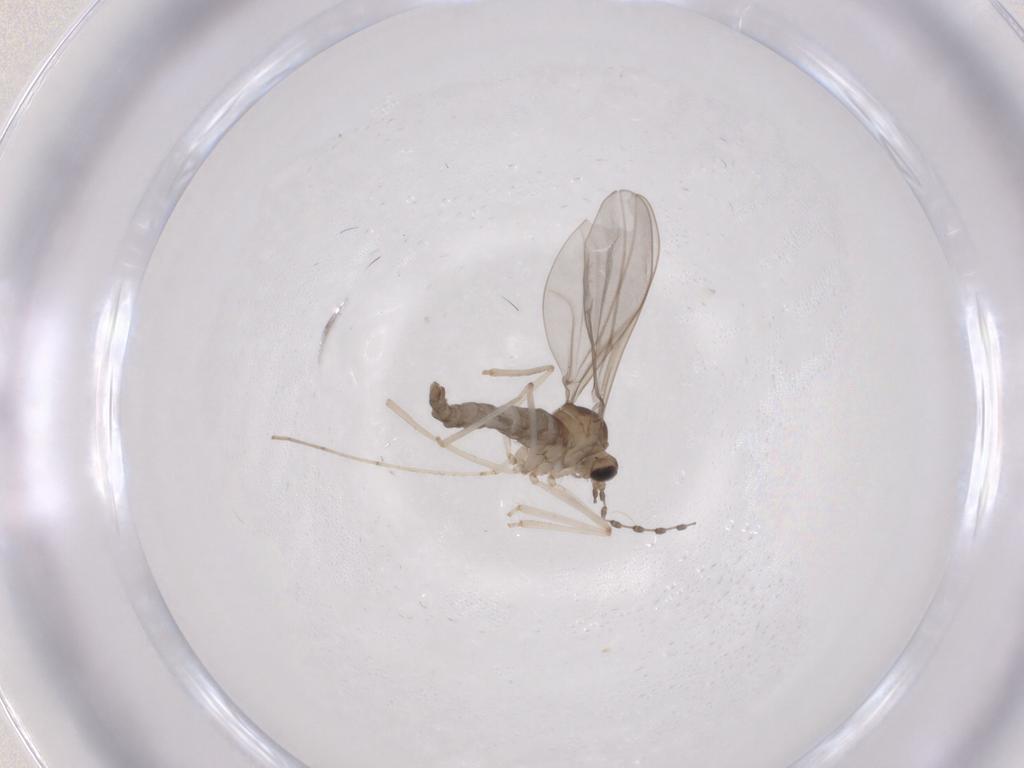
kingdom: Animalia
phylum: Arthropoda
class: Insecta
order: Diptera
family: Cecidomyiidae
